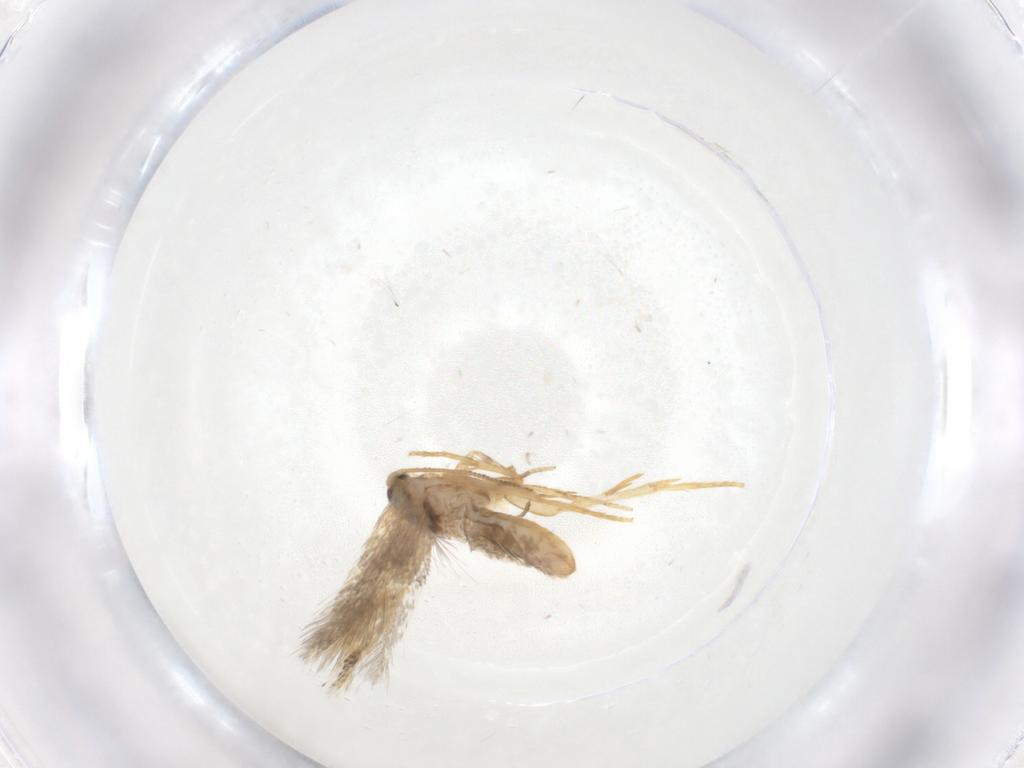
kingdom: Animalia
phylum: Arthropoda
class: Insecta
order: Lepidoptera
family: Nepticulidae
